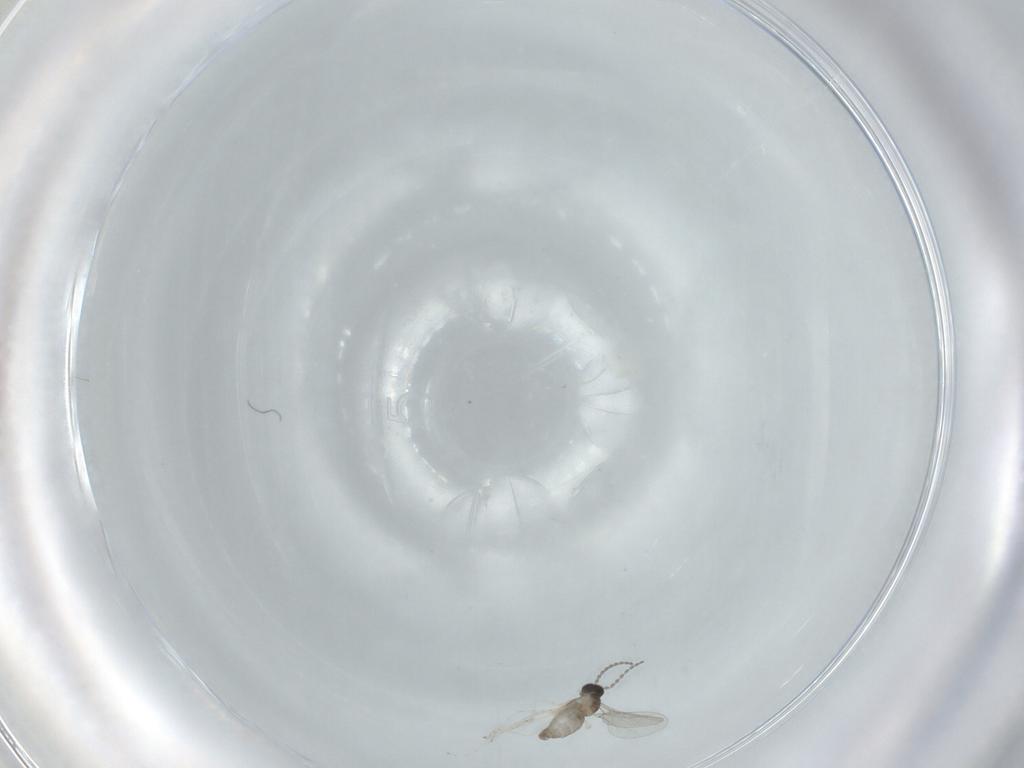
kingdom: Animalia
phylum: Arthropoda
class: Insecta
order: Diptera
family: Cecidomyiidae
